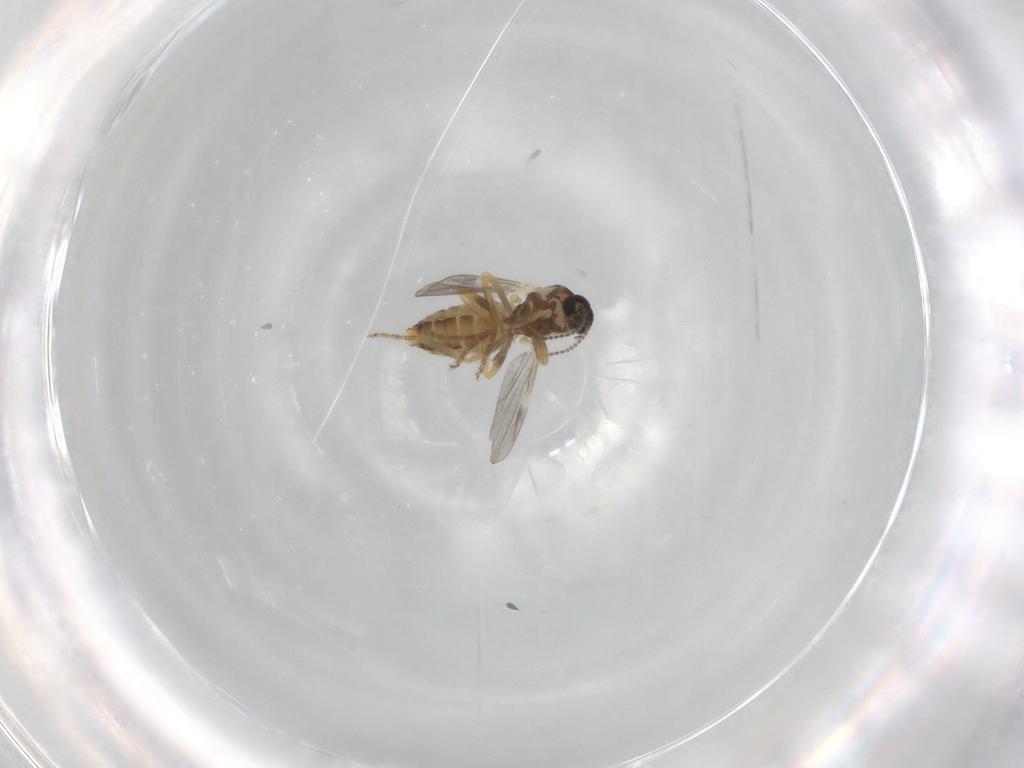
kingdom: Animalia
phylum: Arthropoda
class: Insecta
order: Diptera
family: Ceratopogonidae
